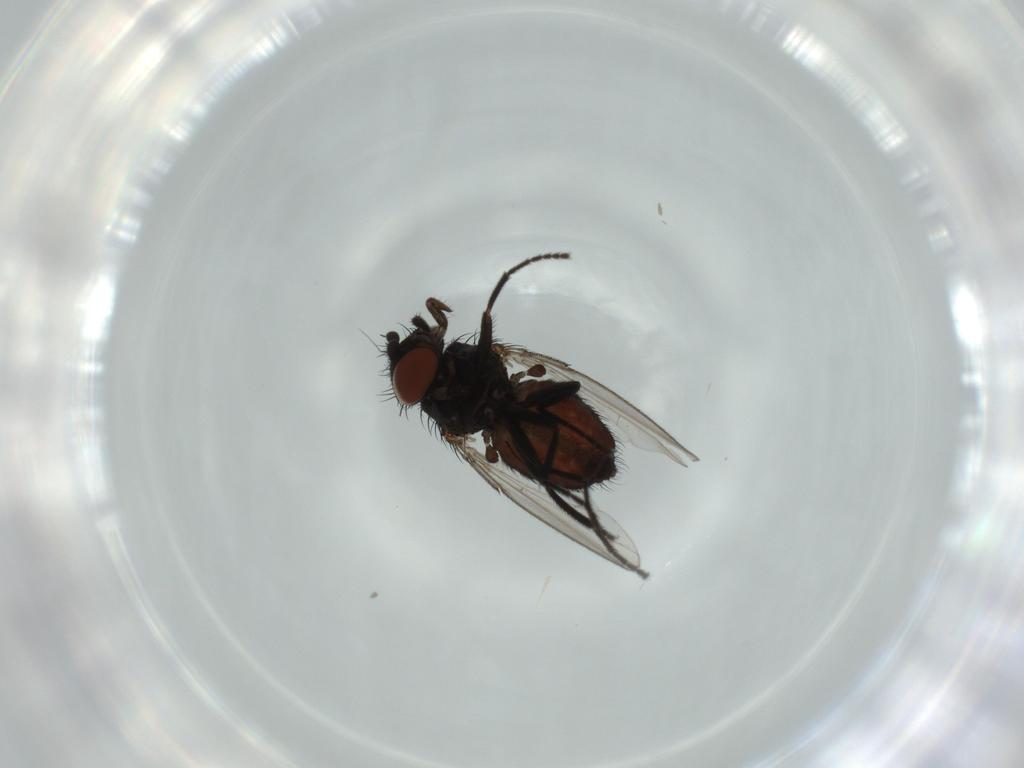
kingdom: Animalia
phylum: Arthropoda
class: Insecta
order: Diptera
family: Milichiidae
